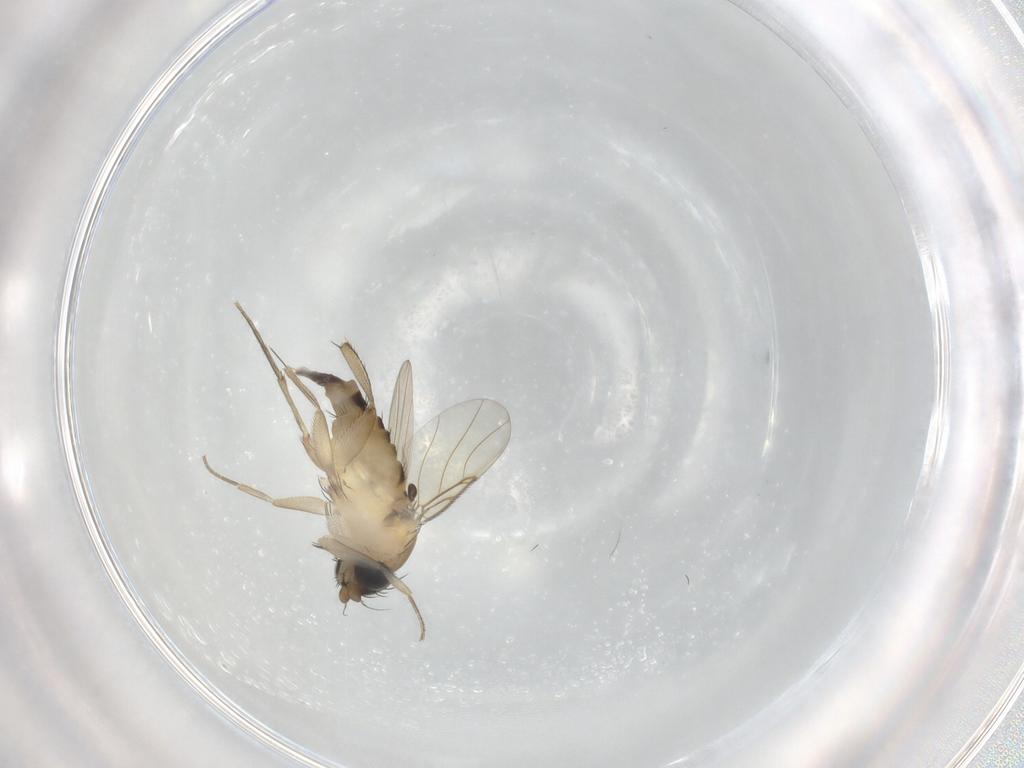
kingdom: Animalia
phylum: Arthropoda
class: Insecta
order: Diptera
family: Phoridae
